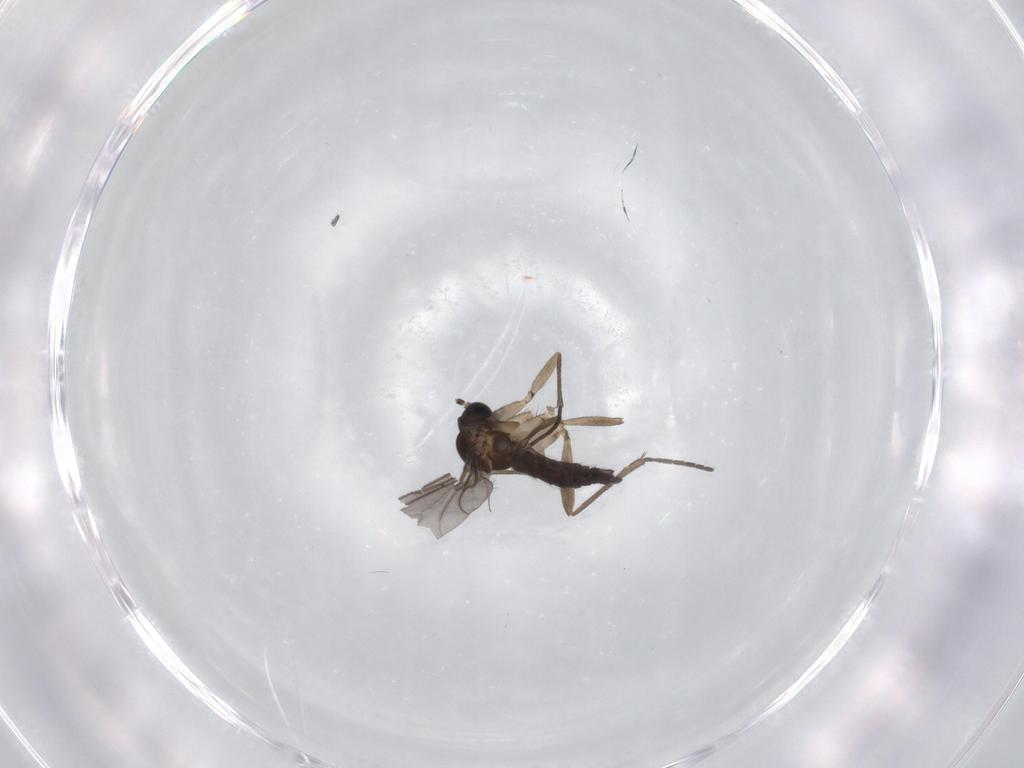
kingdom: Animalia
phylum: Arthropoda
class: Insecta
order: Diptera
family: Sciaridae
